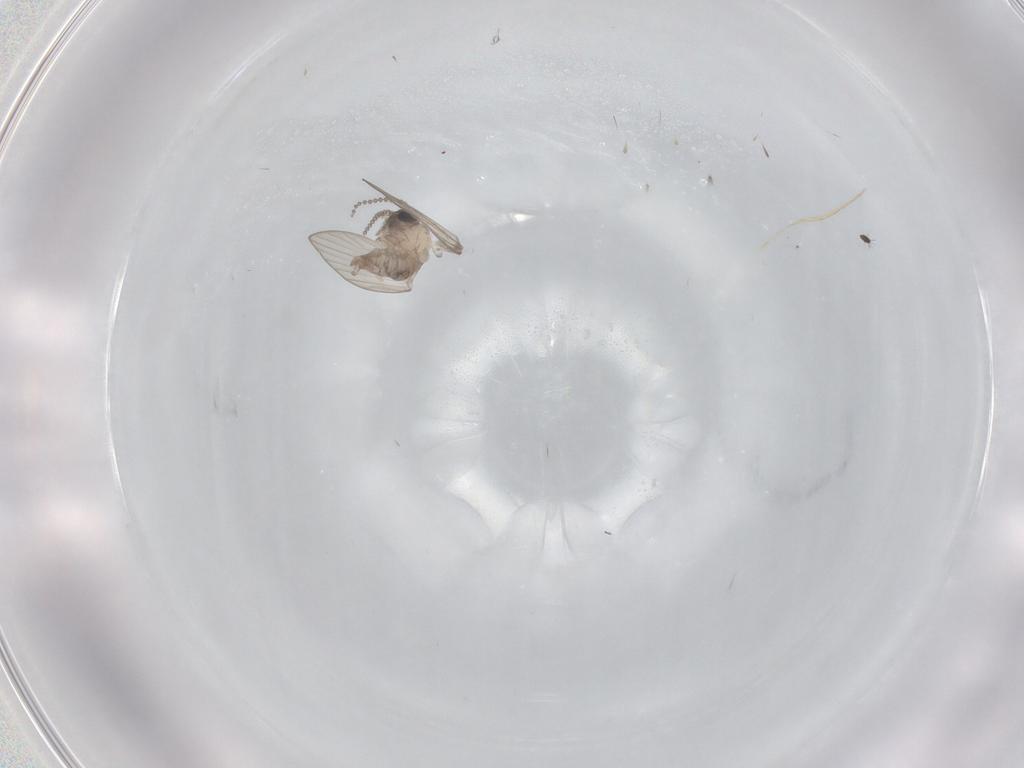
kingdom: Animalia
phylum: Arthropoda
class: Insecta
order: Diptera
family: Psychodidae
